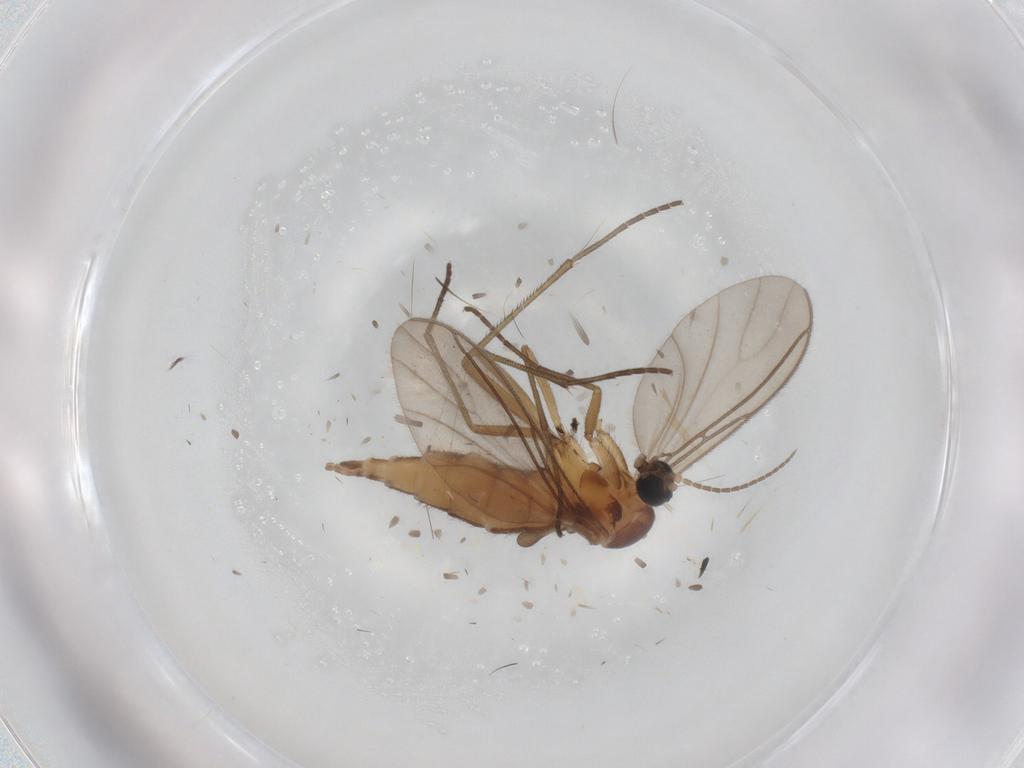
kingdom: Animalia
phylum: Arthropoda
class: Insecta
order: Diptera
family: Sciaridae
